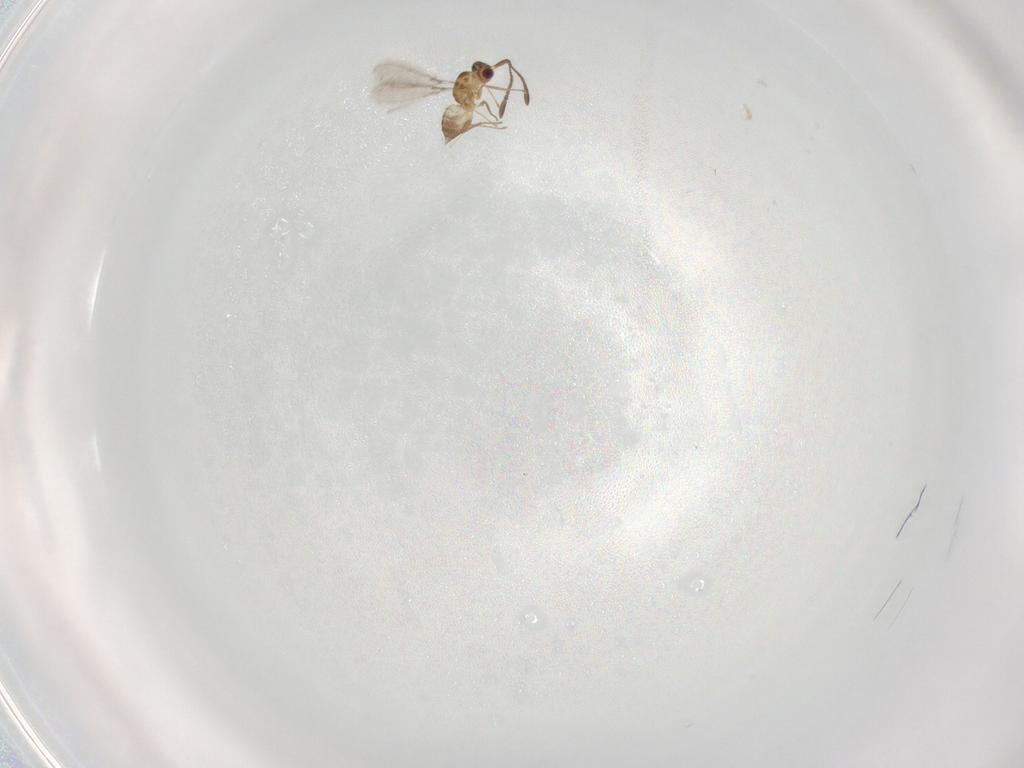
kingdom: Animalia
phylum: Arthropoda
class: Insecta
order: Hymenoptera
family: Mymaridae
